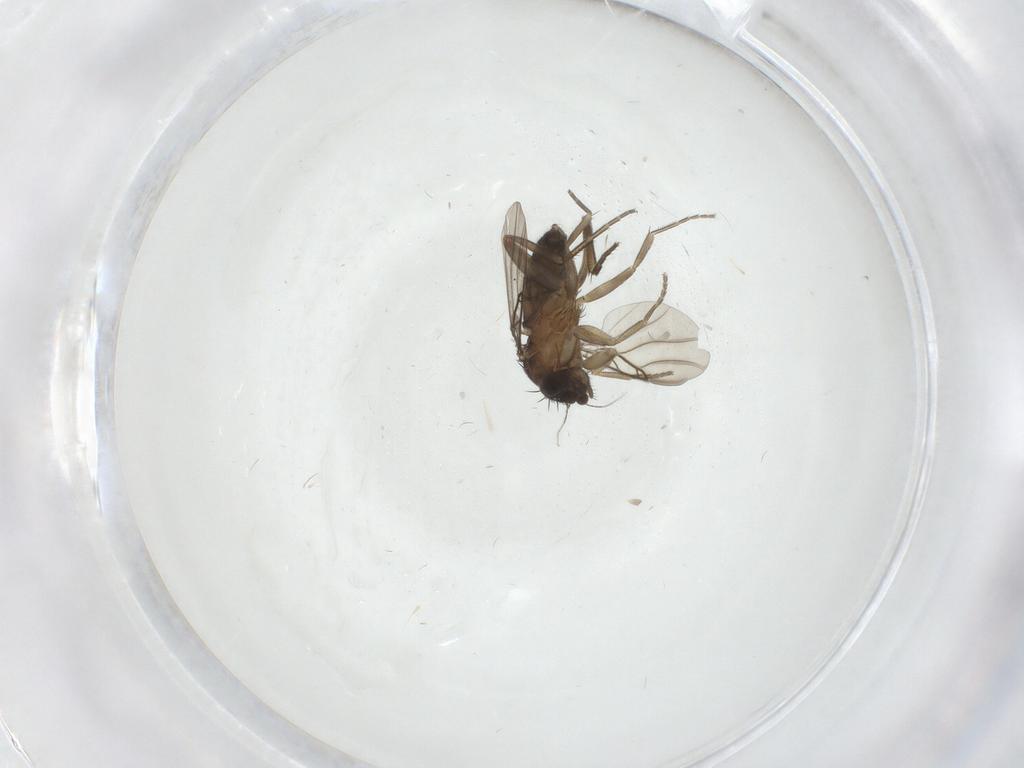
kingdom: Animalia
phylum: Arthropoda
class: Insecta
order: Diptera
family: Phoridae
